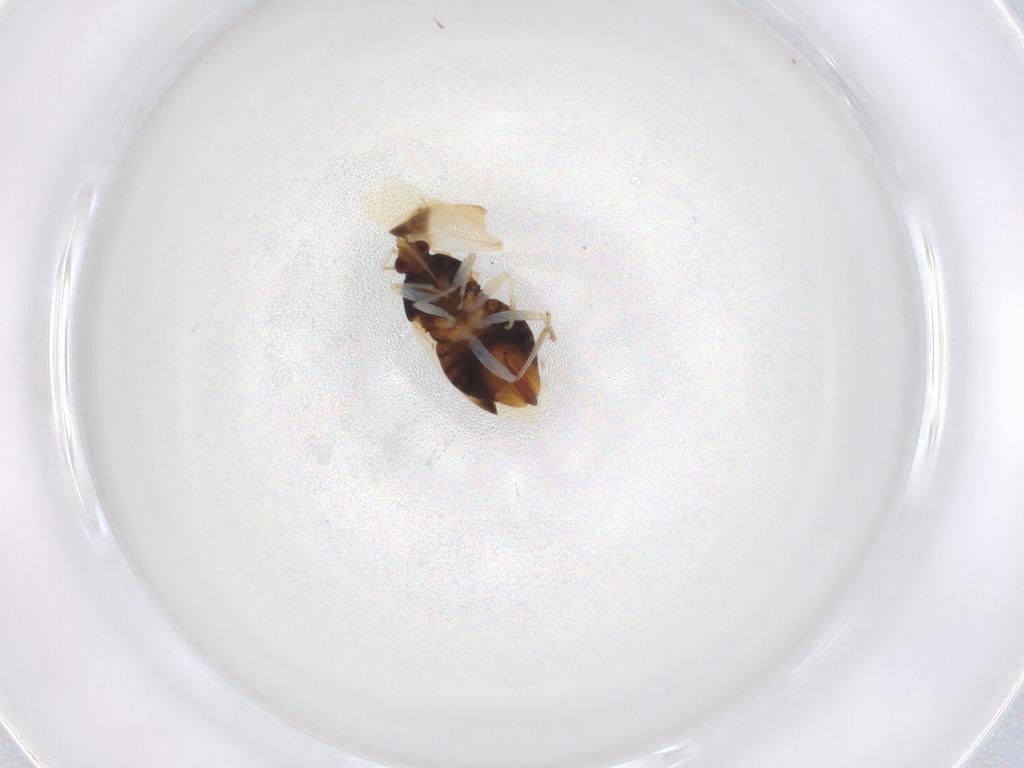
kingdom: Animalia
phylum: Arthropoda
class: Insecta
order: Hemiptera
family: Anthocoridae
